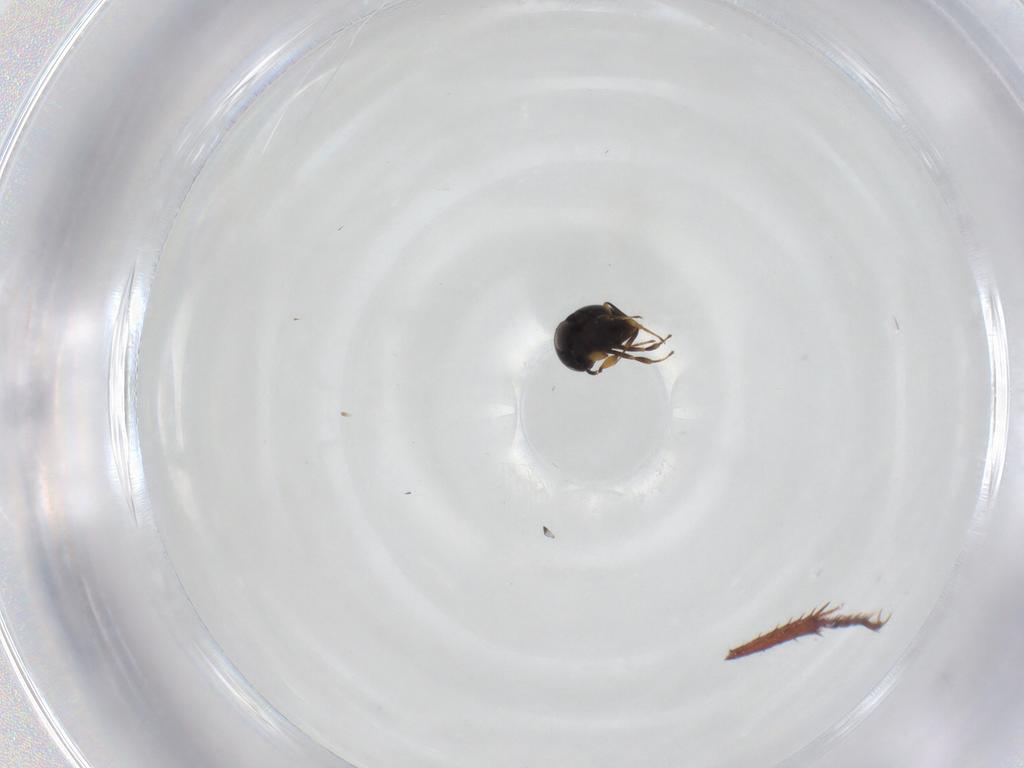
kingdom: Animalia
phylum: Arthropoda
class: Insecta
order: Hymenoptera
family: Scelionidae
